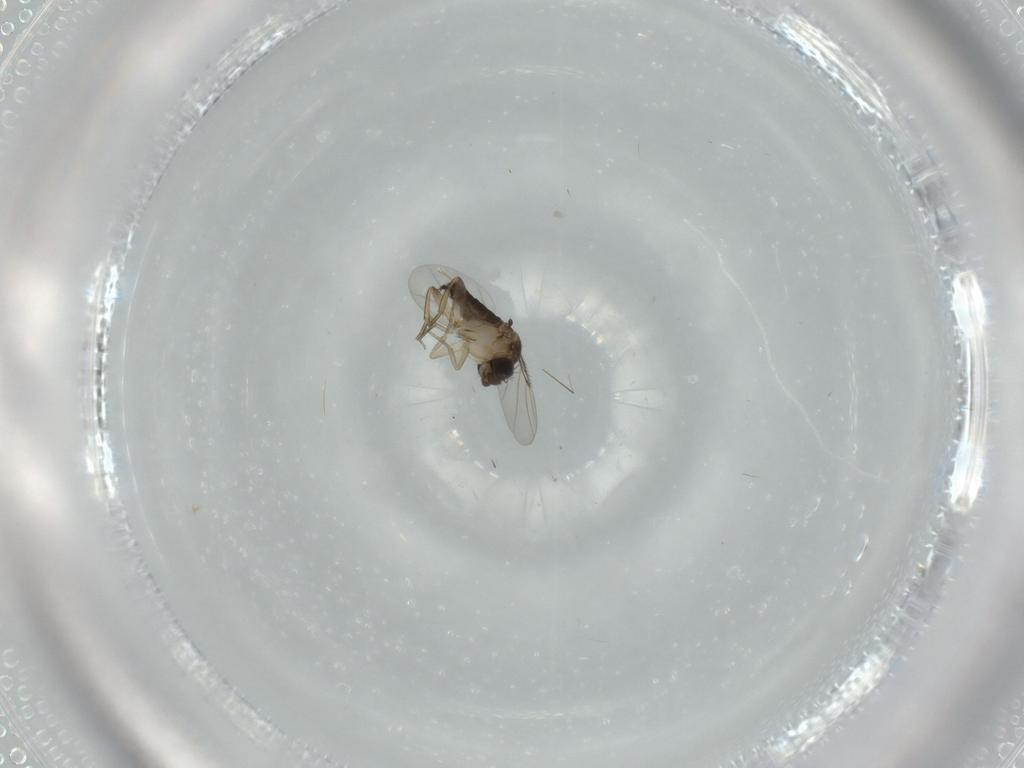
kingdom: Animalia
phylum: Arthropoda
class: Insecta
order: Diptera
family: Phoridae
